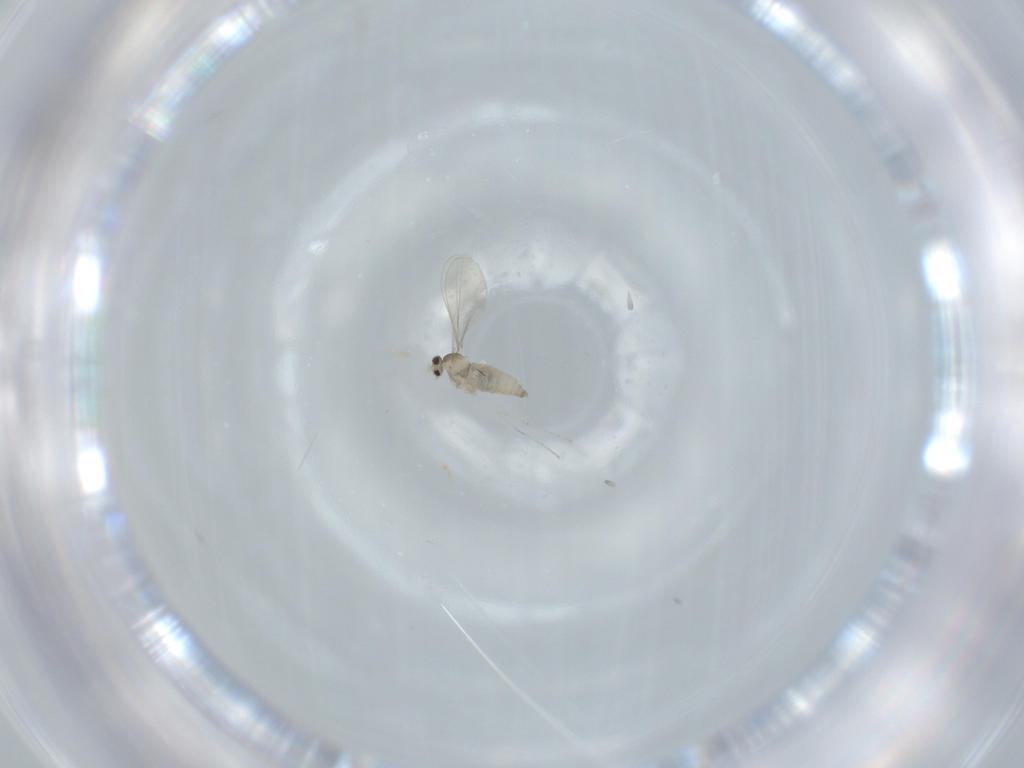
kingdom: Animalia
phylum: Arthropoda
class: Insecta
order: Diptera
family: Cecidomyiidae
